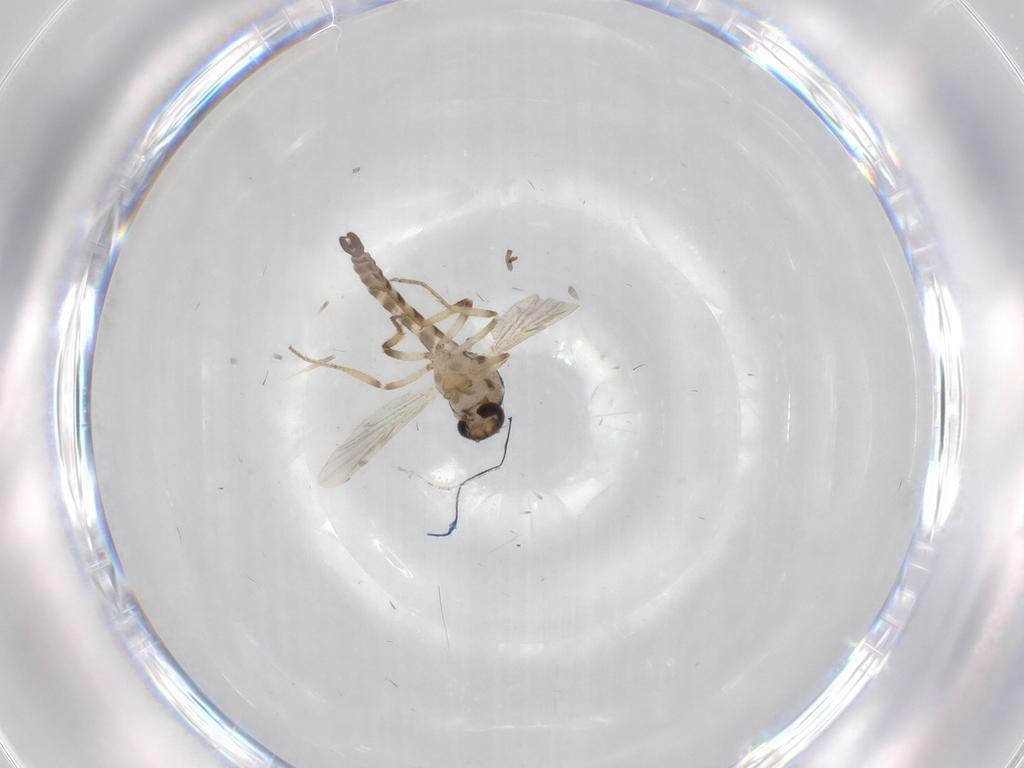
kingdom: Animalia
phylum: Arthropoda
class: Insecta
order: Diptera
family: Ceratopogonidae
